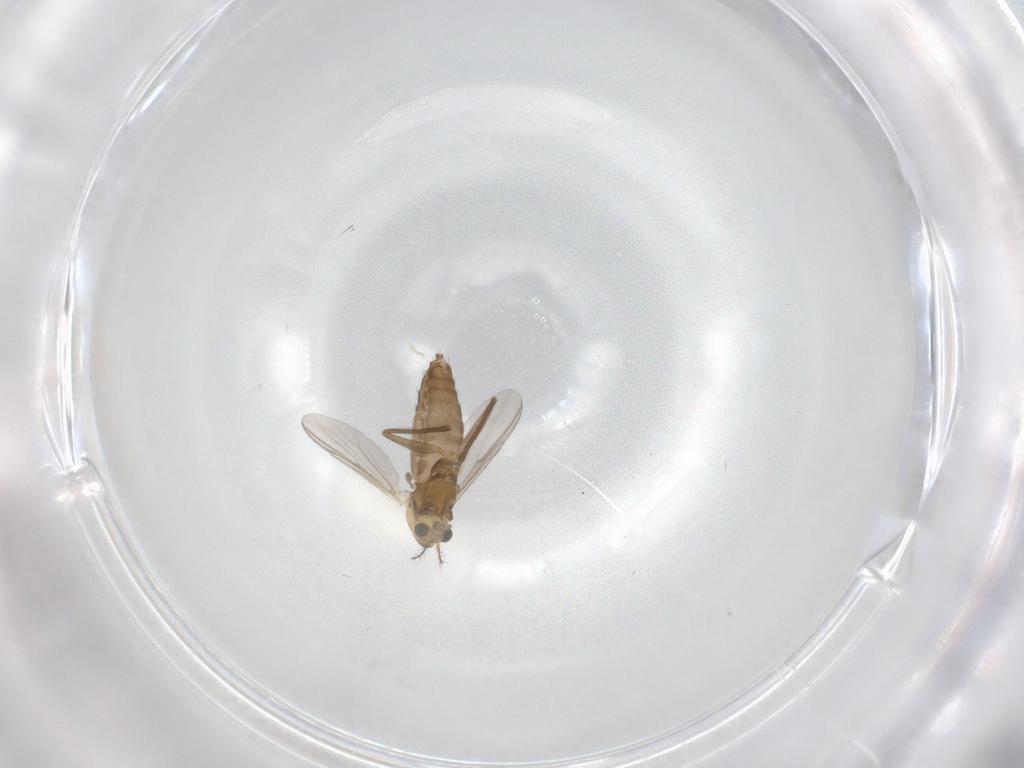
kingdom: Animalia
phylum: Arthropoda
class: Insecta
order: Diptera
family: Chironomidae
